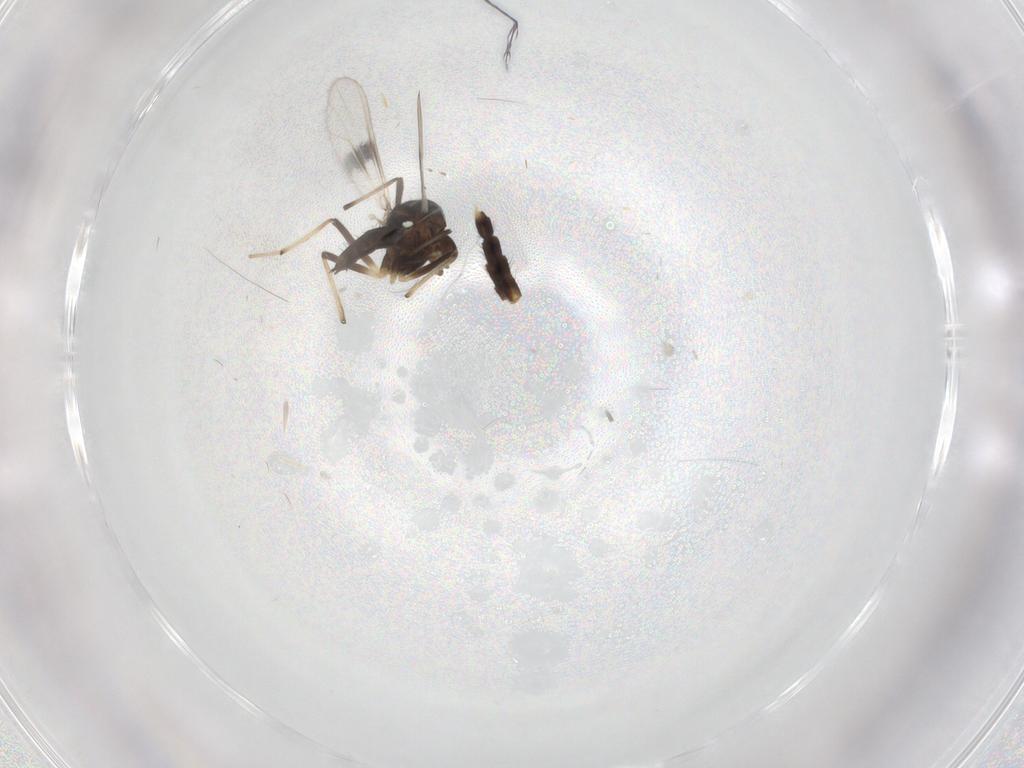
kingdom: Animalia
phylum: Arthropoda
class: Insecta
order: Diptera
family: Chironomidae
